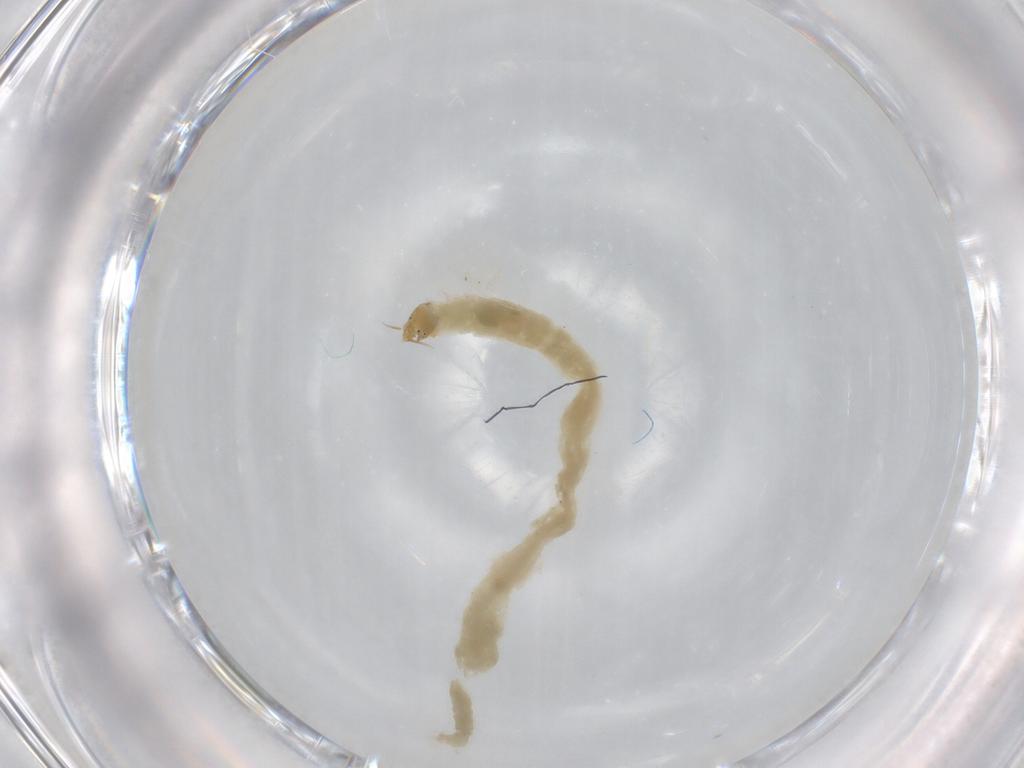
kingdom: Animalia
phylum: Arthropoda
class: Insecta
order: Diptera
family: Chironomidae
